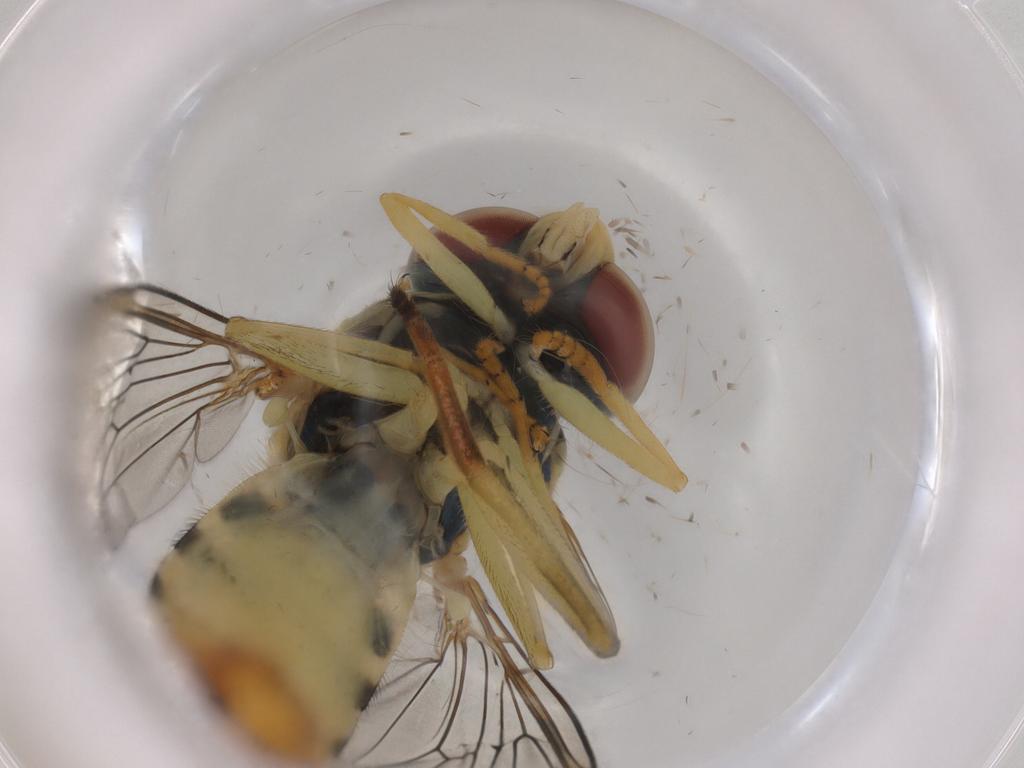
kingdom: Animalia
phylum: Arthropoda
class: Insecta
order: Diptera
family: Syrphidae
